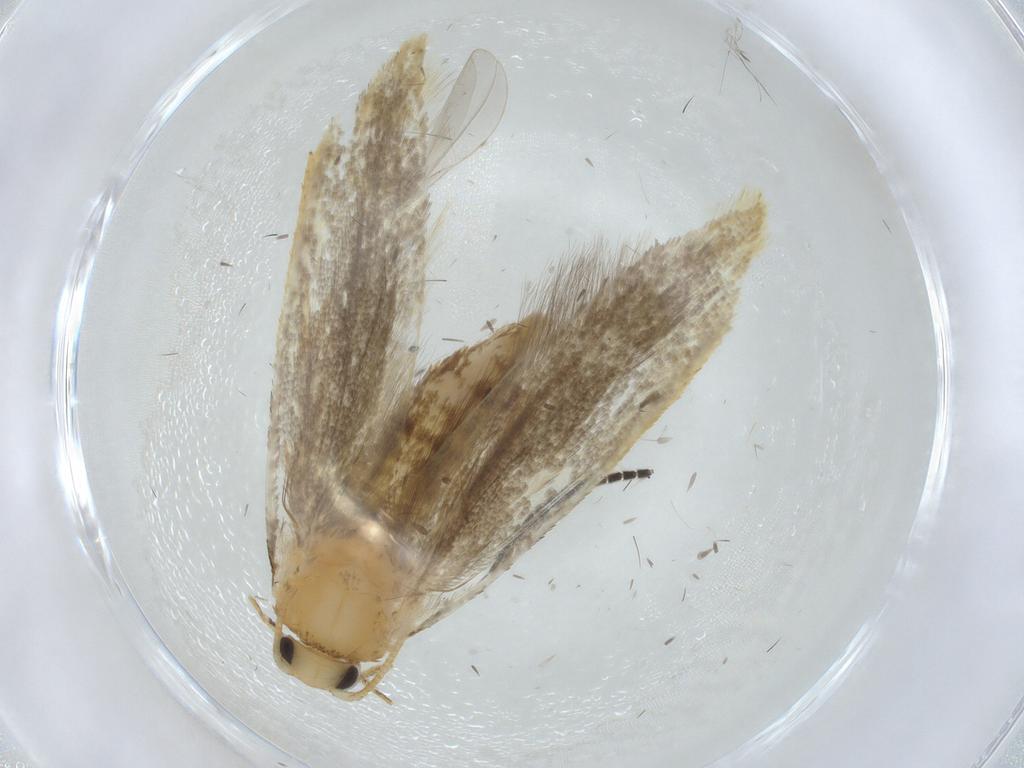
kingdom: Animalia
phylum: Arthropoda
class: Insecta
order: Lepidoptera
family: Tineidae
